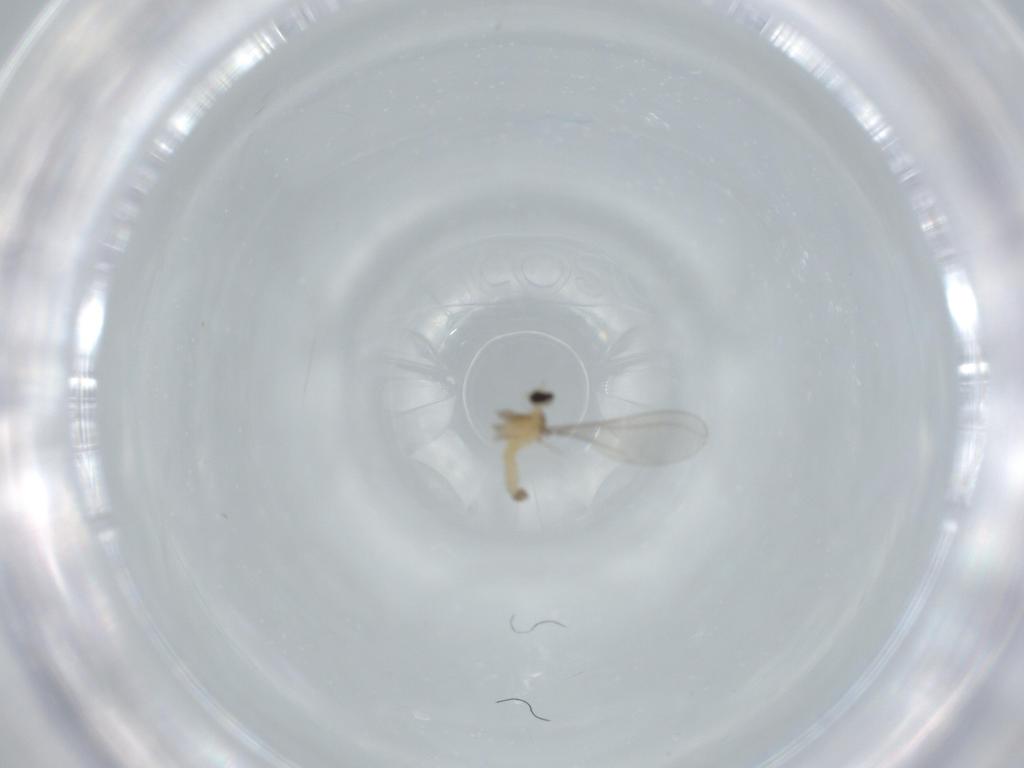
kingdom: Animalia
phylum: Arthropoda
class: Insecta
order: Diptera
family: Cecidomyiidae
